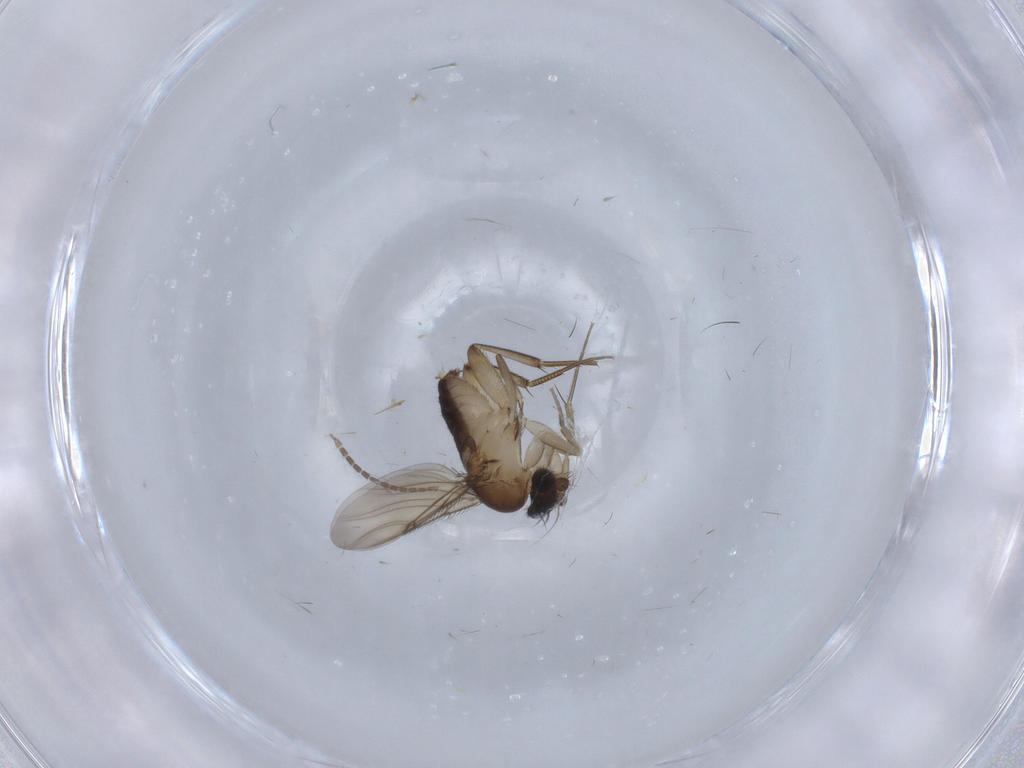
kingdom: Animalia
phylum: Arthropoda
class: Insecta
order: Diptera
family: Phoridae
